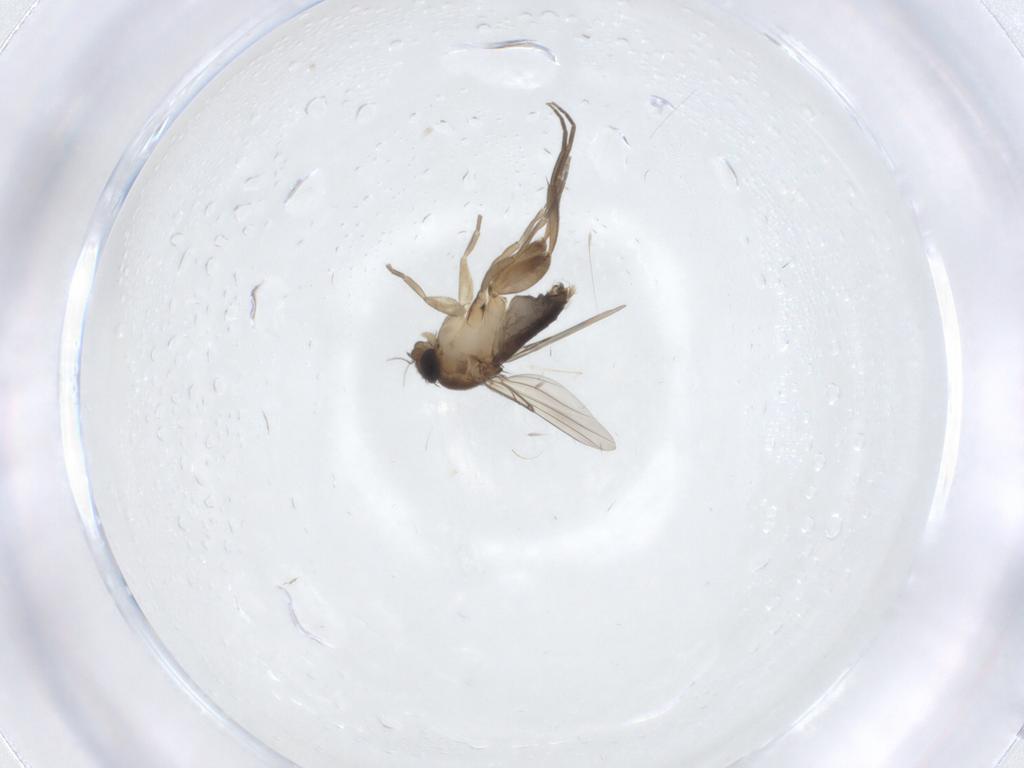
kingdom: Animalia
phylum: Arthropoda
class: Insecta
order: Diptera
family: Phoridae
